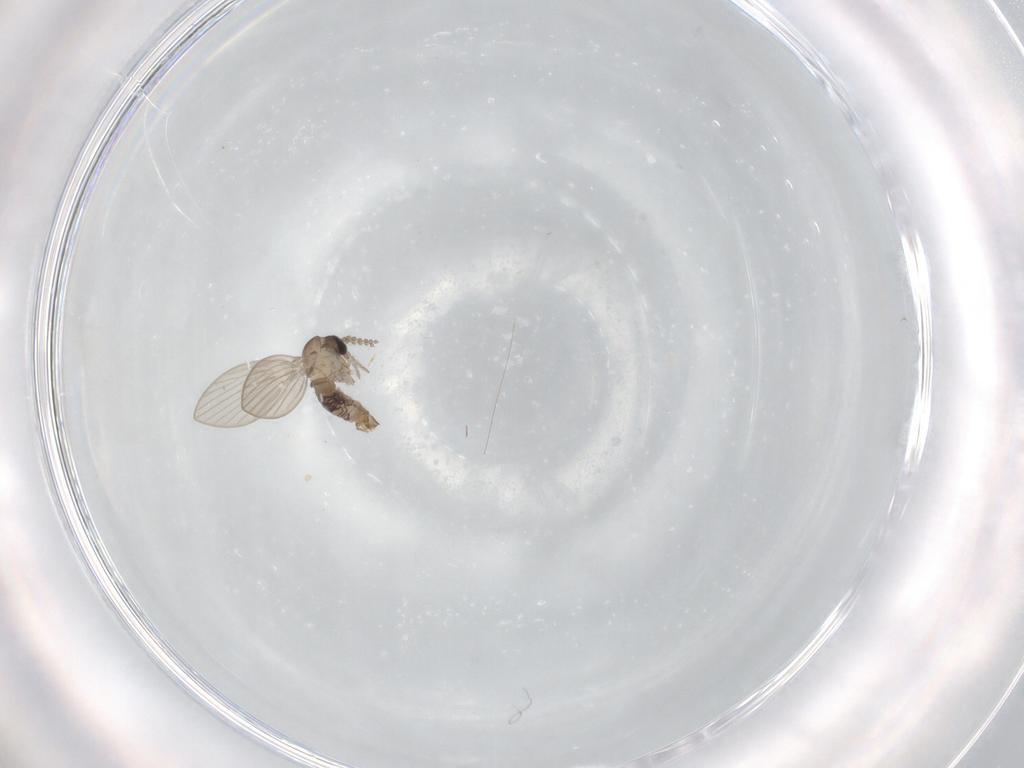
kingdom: Animalia
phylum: Arthropoda
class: Insecta
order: Diptera
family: Psychodidae
